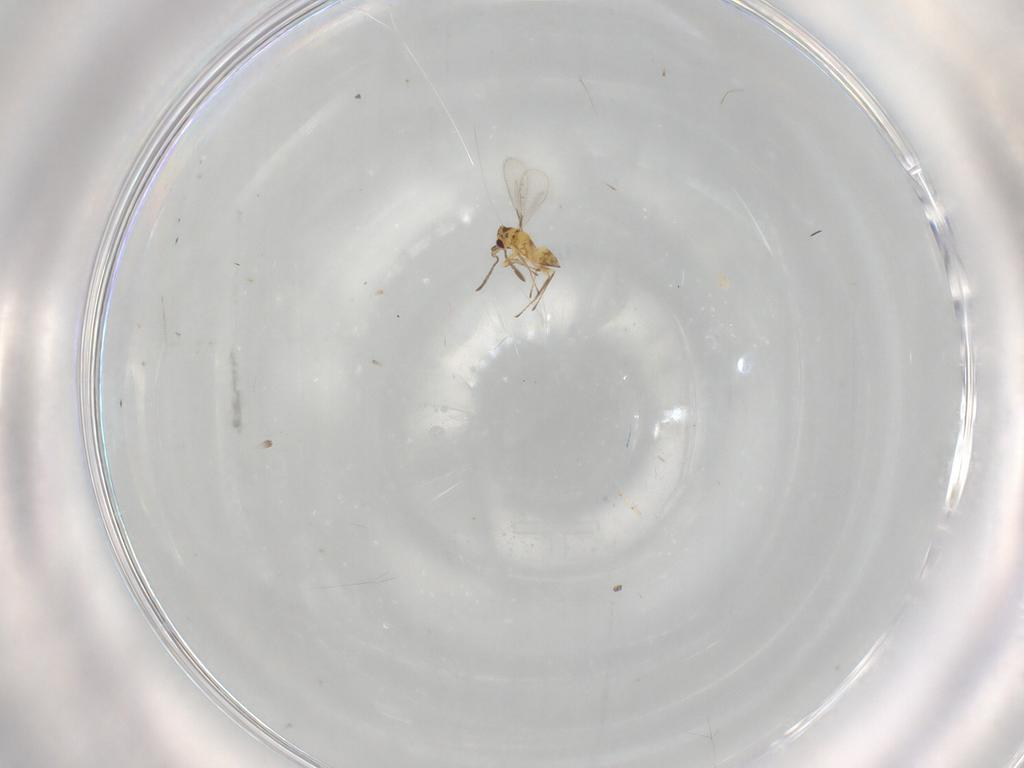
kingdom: Animalia
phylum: Arthropoda
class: Insecta
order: Hymenoptera
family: Mymaridae
